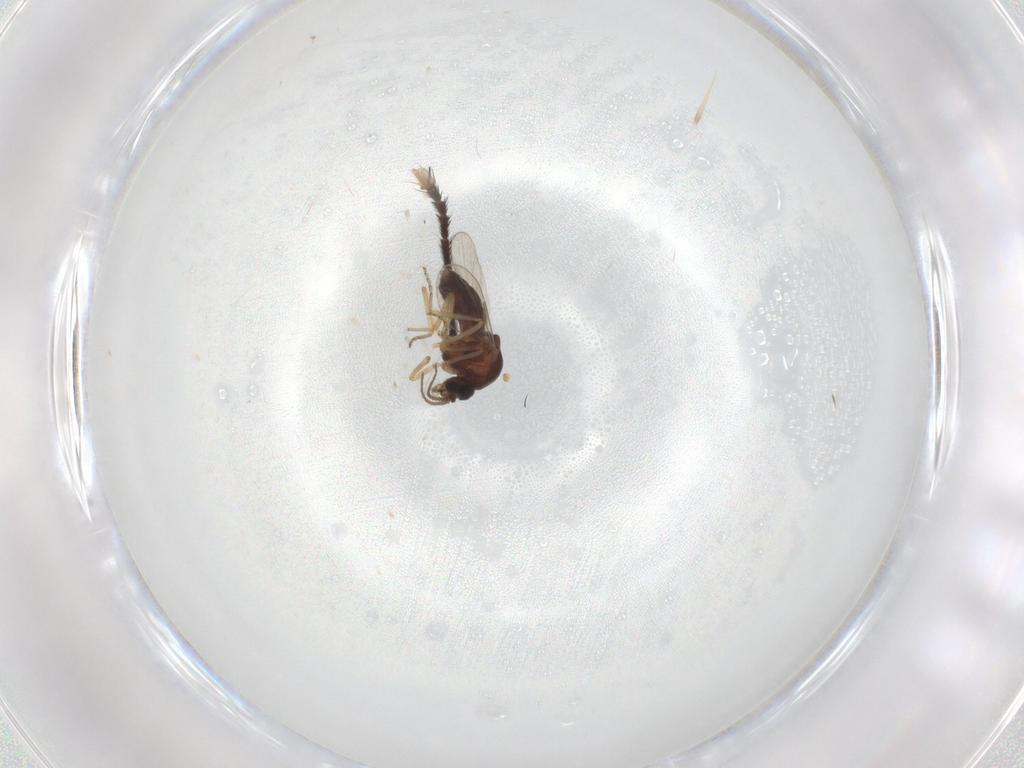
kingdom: Animalia
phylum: Arthropoda
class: Insecta
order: Diptera
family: Ceratopogonidae
